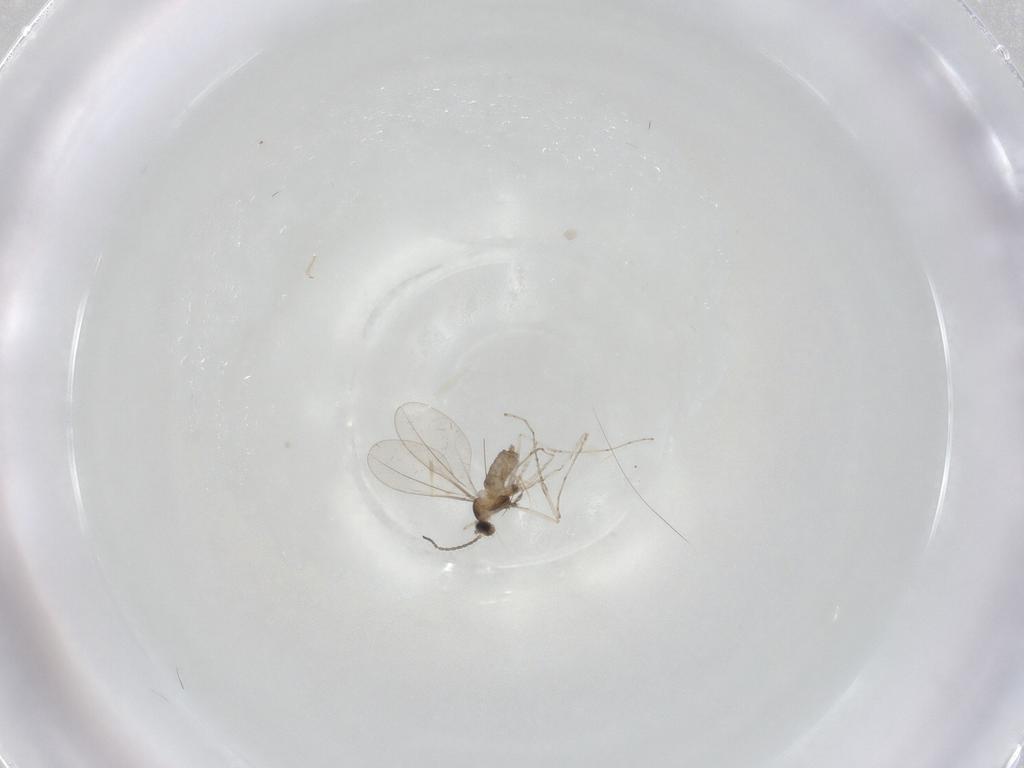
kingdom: Animalia
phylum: Arthropoda
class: Insecta
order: Diptera
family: Cecidomyiidae
